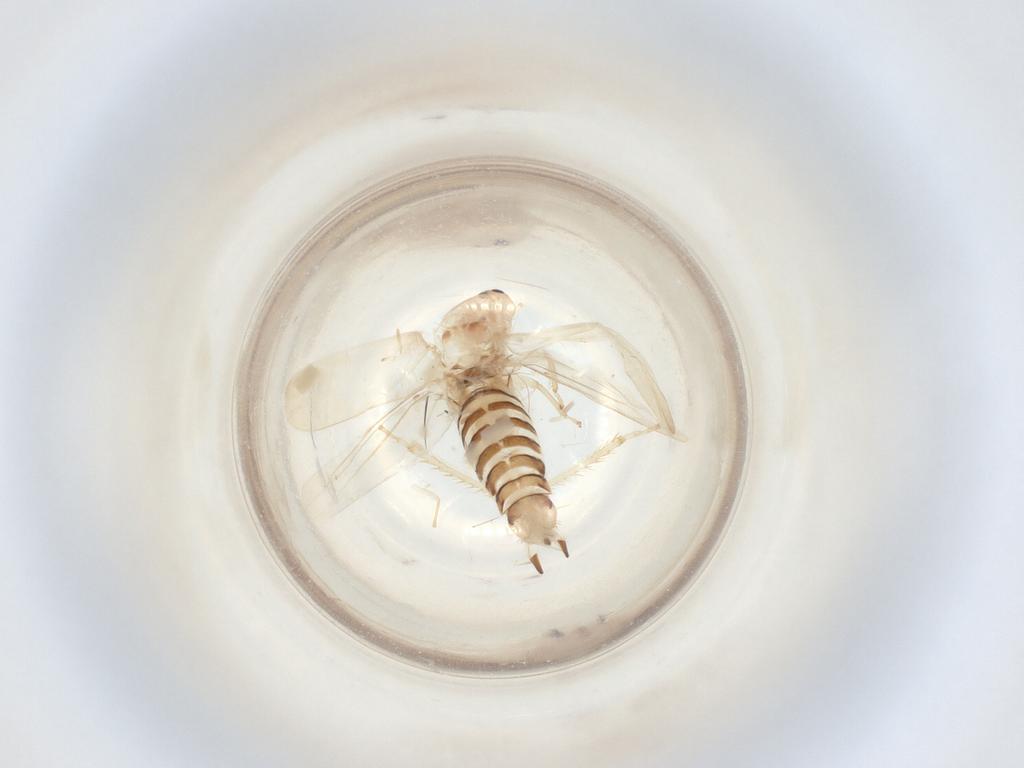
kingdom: Animalia
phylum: Arthropoda
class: Insecta
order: Hemiptera
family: Cicadellidae
